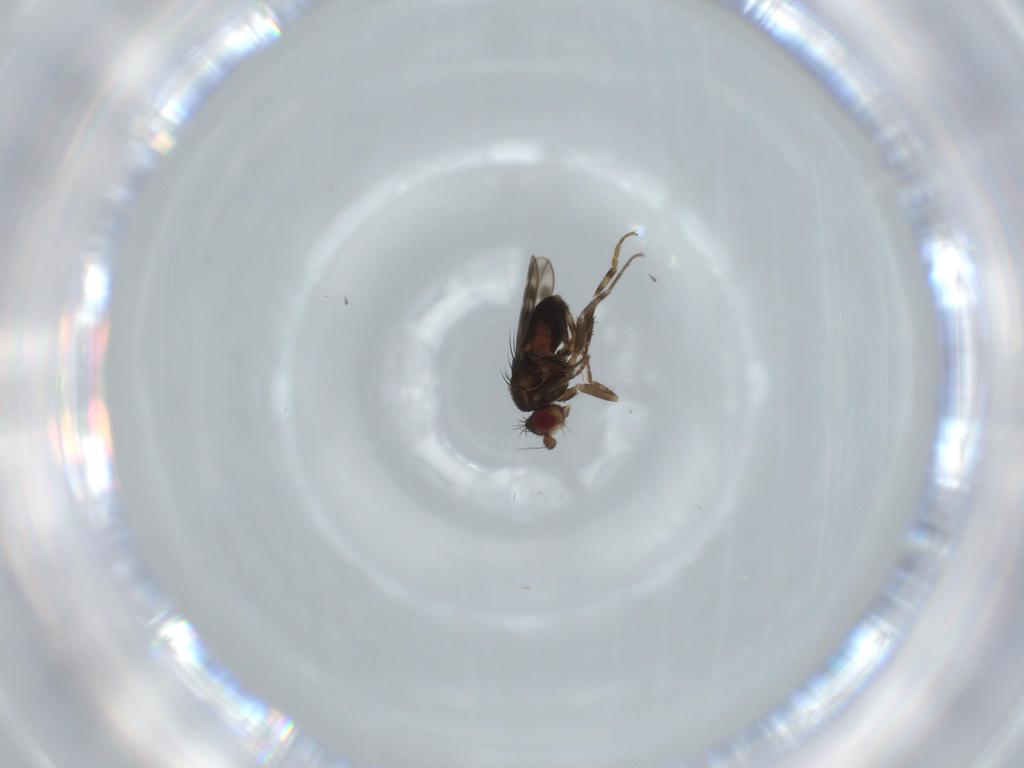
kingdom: Animalia
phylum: Arthropoda
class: Insecta
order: Diptera
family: Sphaeroceridae
